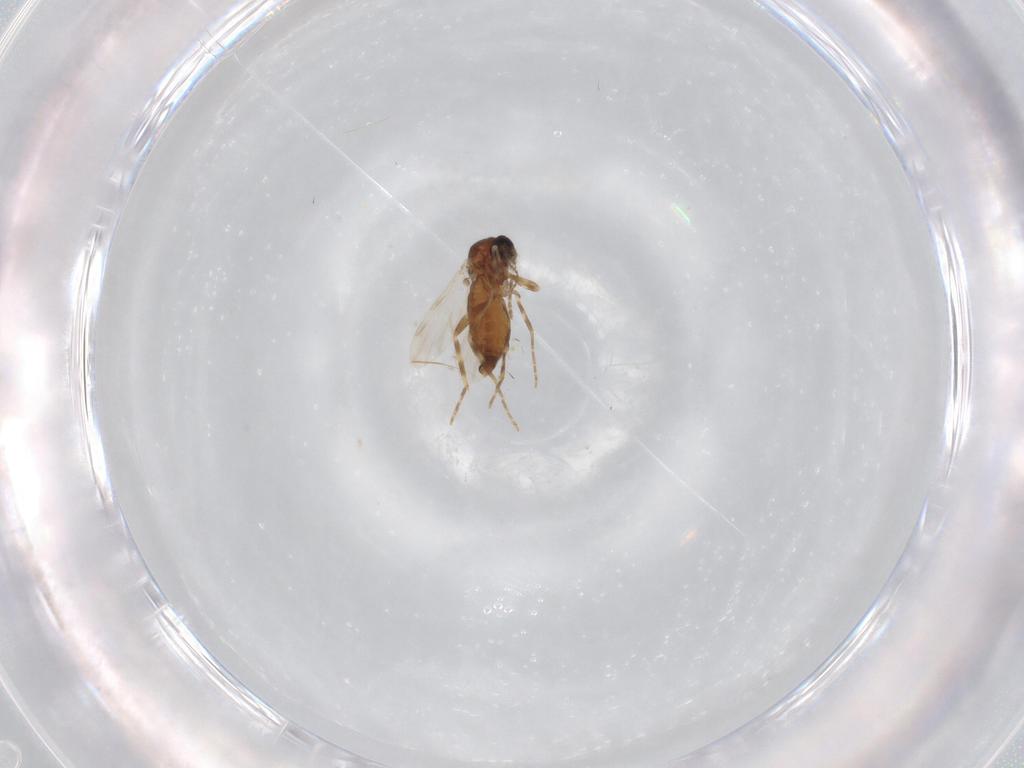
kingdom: Animalia
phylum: Arthropoda
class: Insecta
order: Diptera
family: Ceratopogonidae
